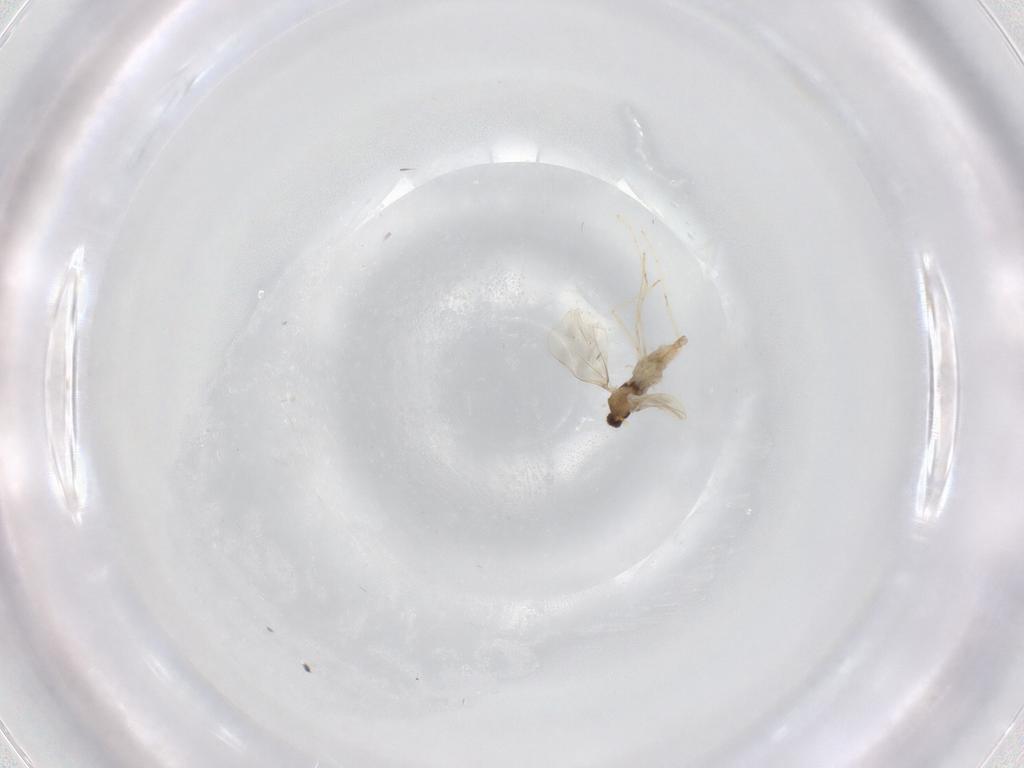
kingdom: Animalia
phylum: Arthropoda
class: Insecta
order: Diptera
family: Cecidomyiidae
